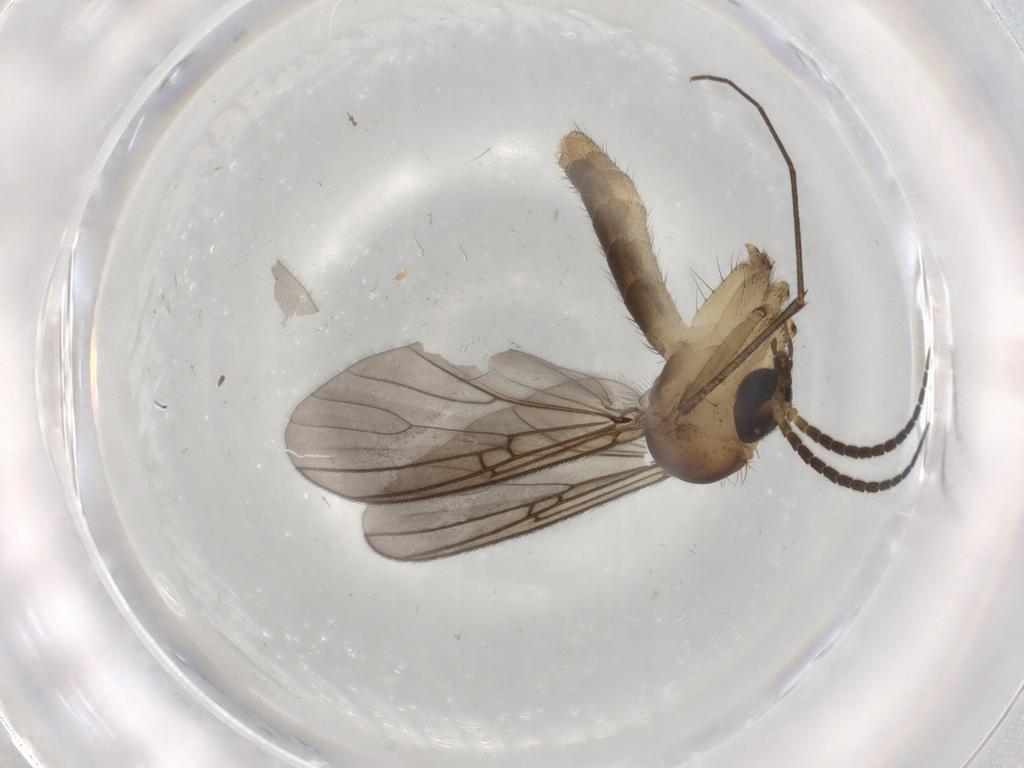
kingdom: Animalia
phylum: Arthropoda
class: Insecta
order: Diptera
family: Mycetophilidae
